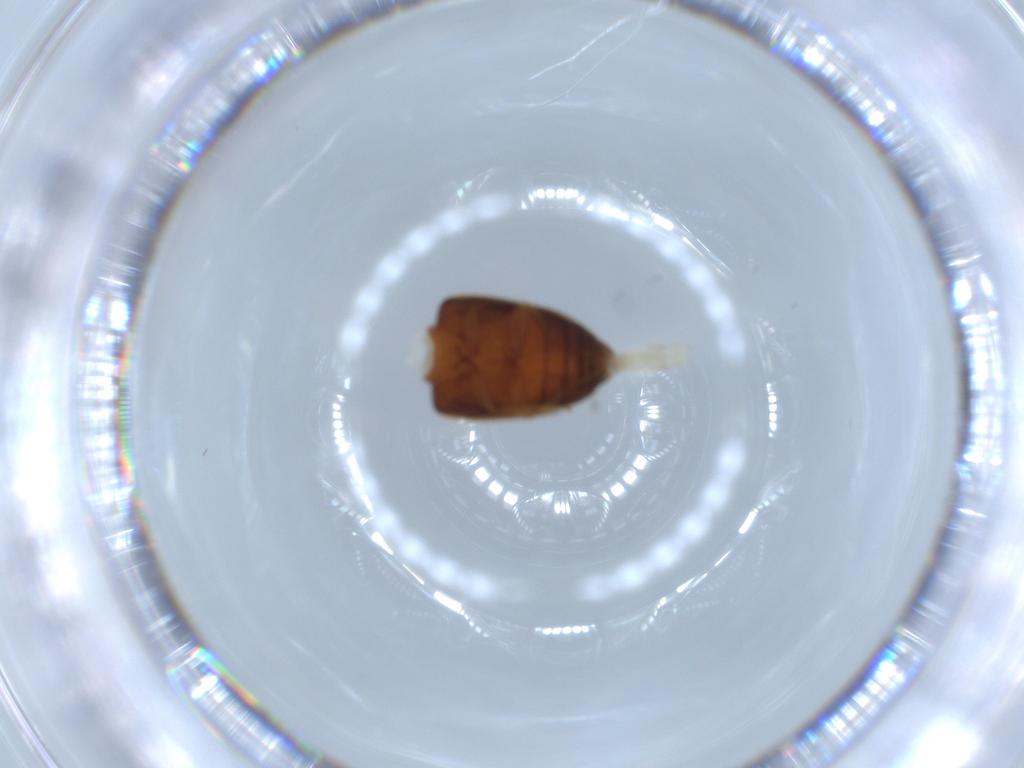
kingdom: Animalia
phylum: Arthropoda
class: Insecta
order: Coleoptera
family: Mycetophagidae
